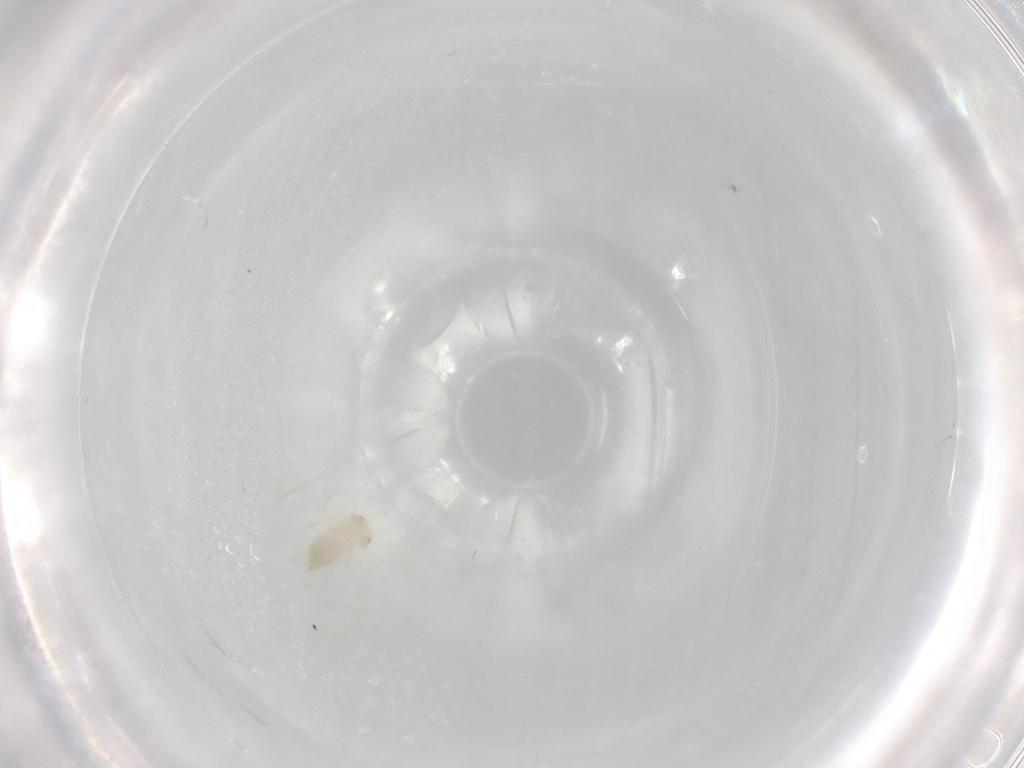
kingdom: Animalia
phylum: Arthropoda
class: Insecta
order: Hemiptera
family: Aleyrodidae
